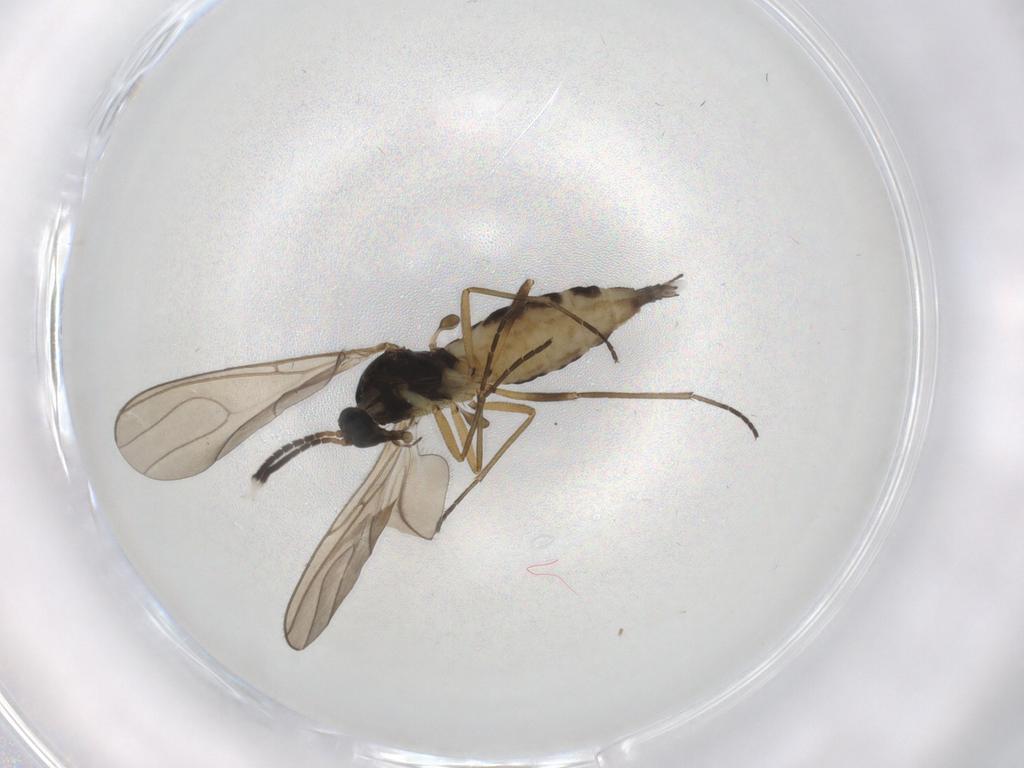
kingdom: Animalia
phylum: Arthropoda
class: Insecta
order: Diptera
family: Sciaridae
